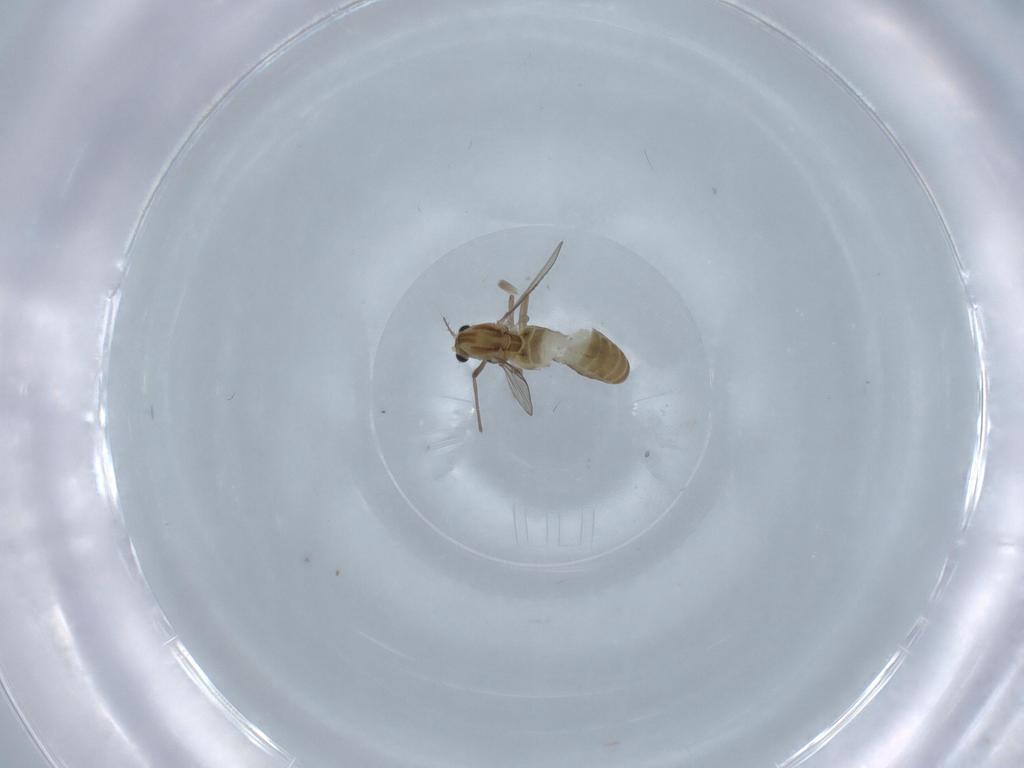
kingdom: Animalia
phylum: Arthropoda
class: Insecta
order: Diptera
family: Chironomidae
